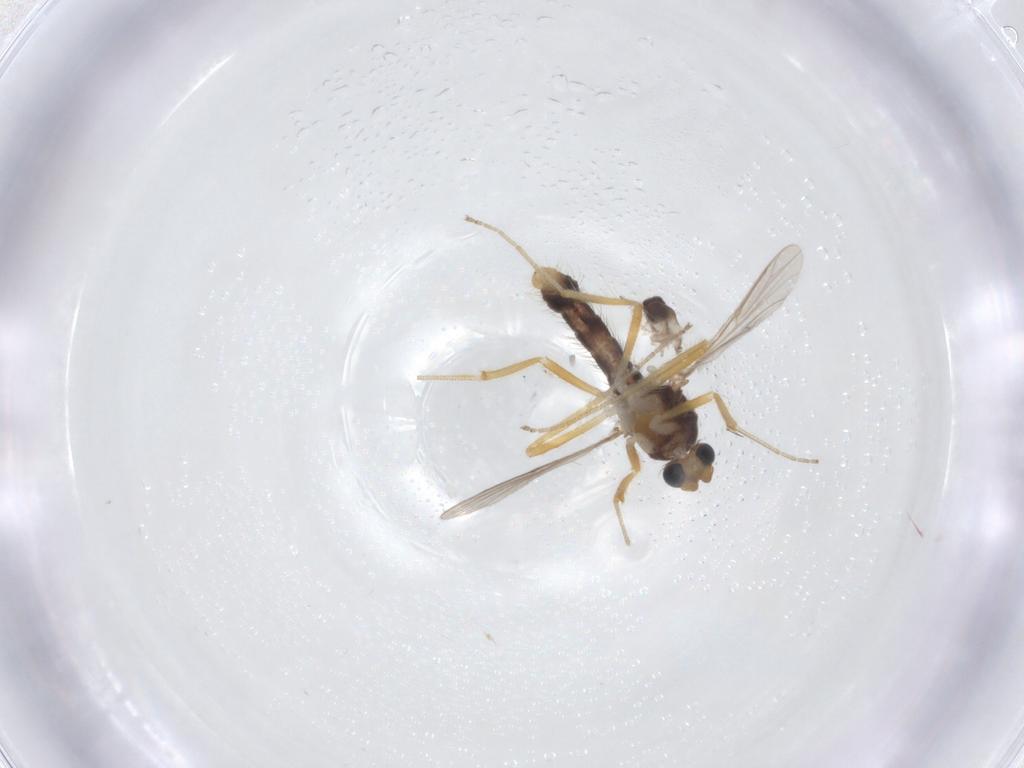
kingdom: Animalia
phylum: Arthropoda
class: Insecta
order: Diptera
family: Ceratopogonidae
